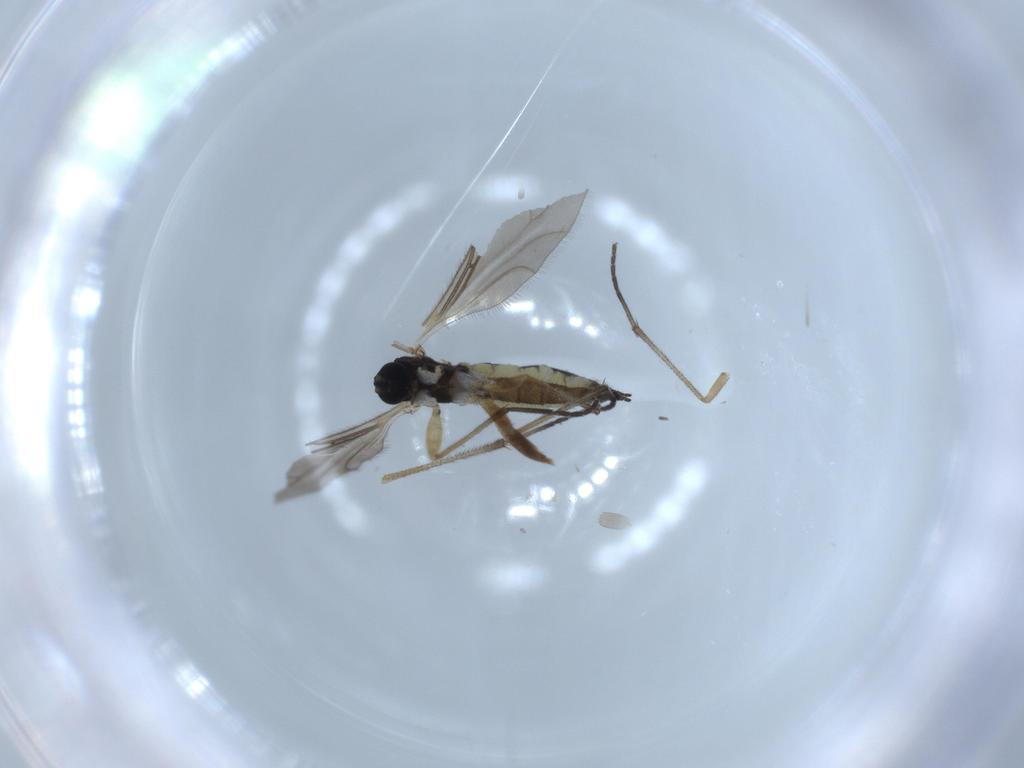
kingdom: Animalia
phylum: Arthropoda
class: Insecta
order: Diptera
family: Sciaridae
